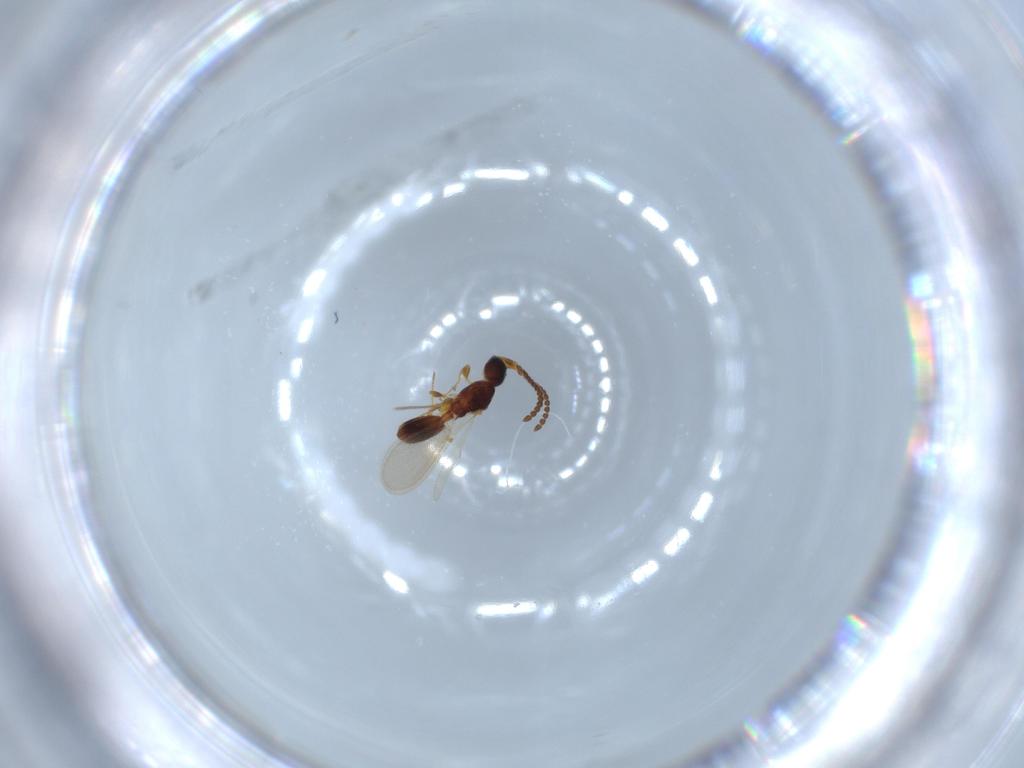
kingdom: Animalia
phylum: Arthropoda
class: Insecta
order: Hymenoptera
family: Diapriidae
